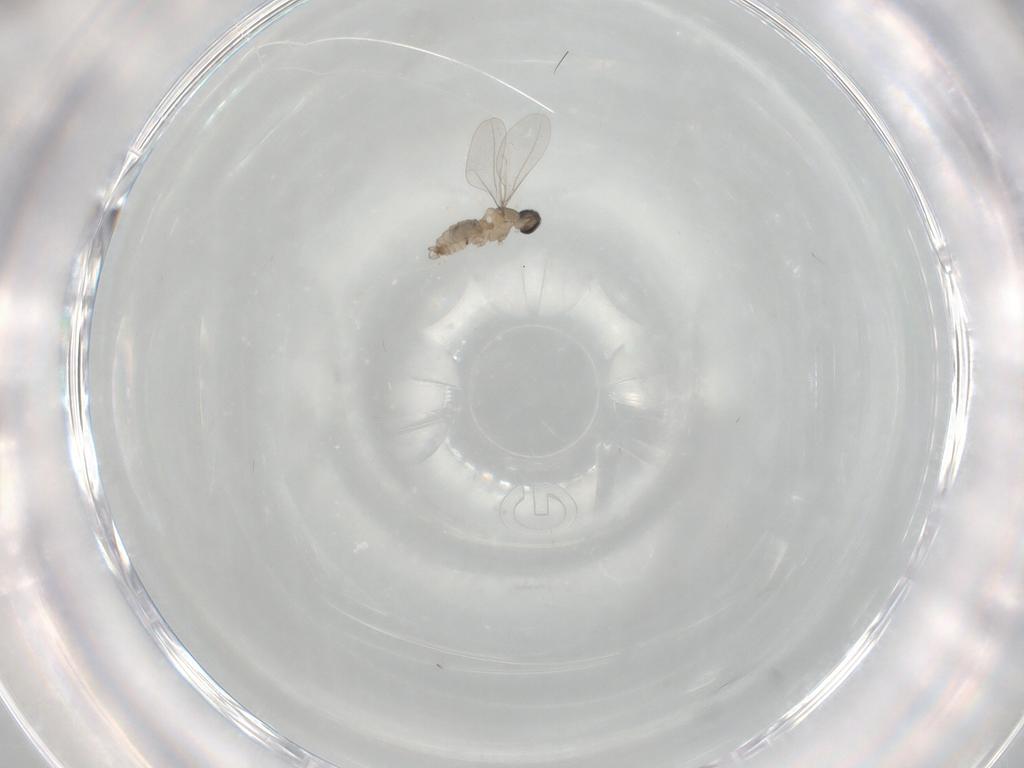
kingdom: Animalia
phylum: Arthropoda
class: Insecta
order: Diptera
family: Cecidomyiidae
